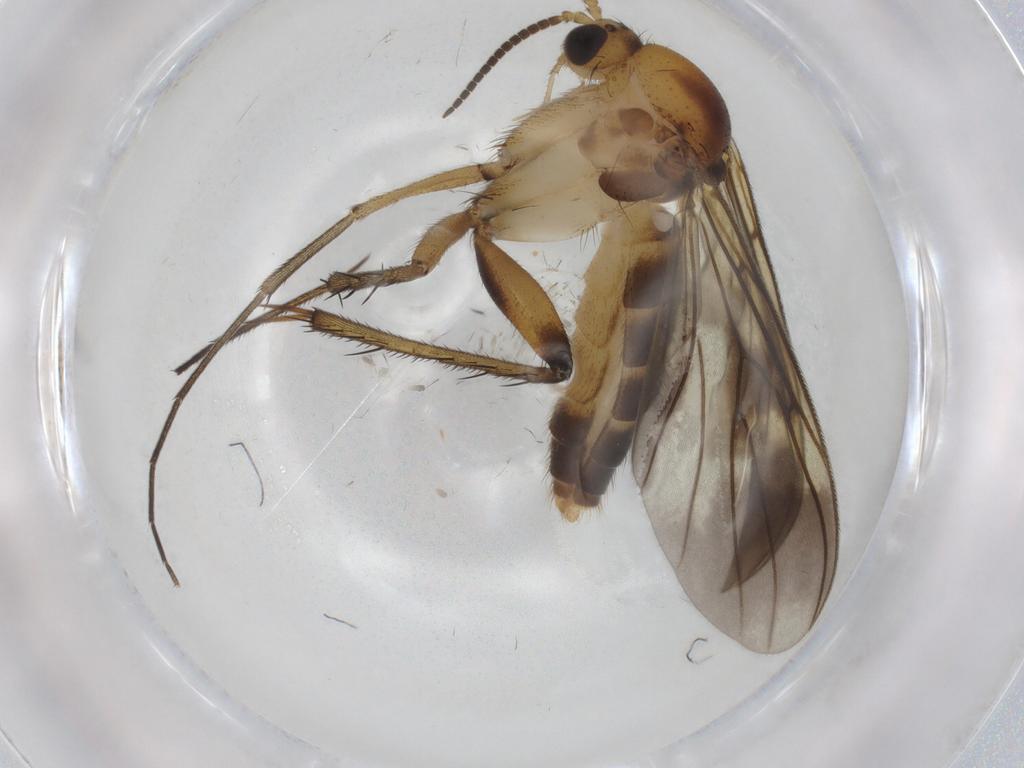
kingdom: Animalia
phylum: Arthropoda
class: Insecta
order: Diptera
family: Mycetophilidae
